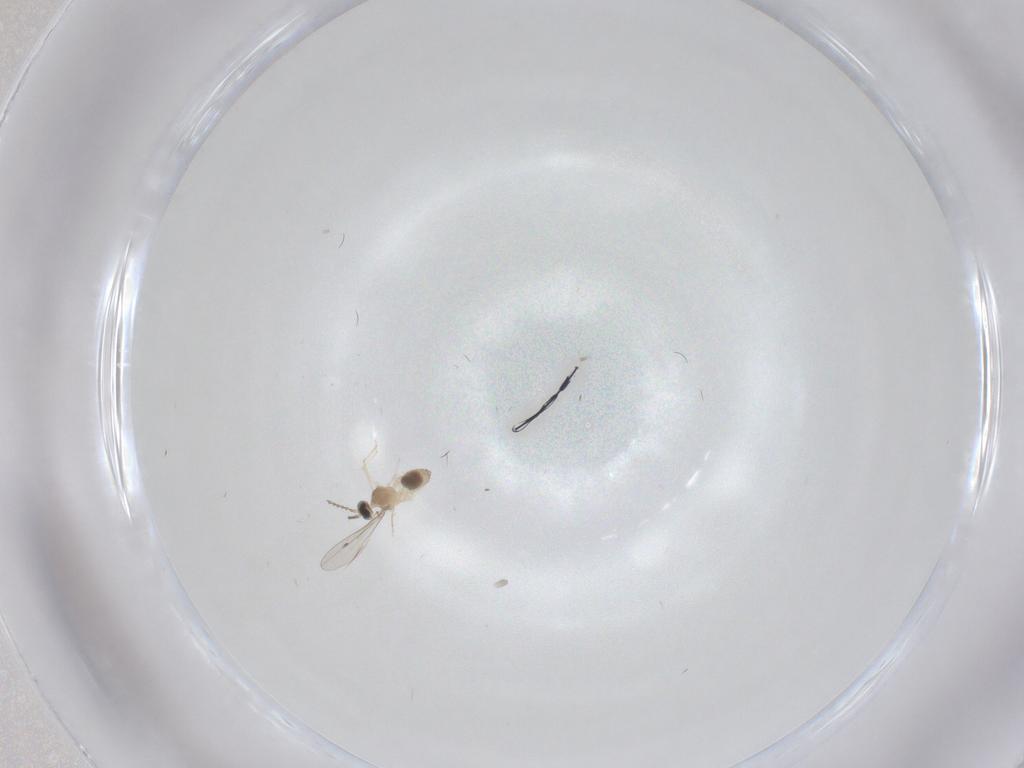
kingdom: Animalia
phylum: Arthropoda
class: Insecta
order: Diptera
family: Cecidomyiidae
